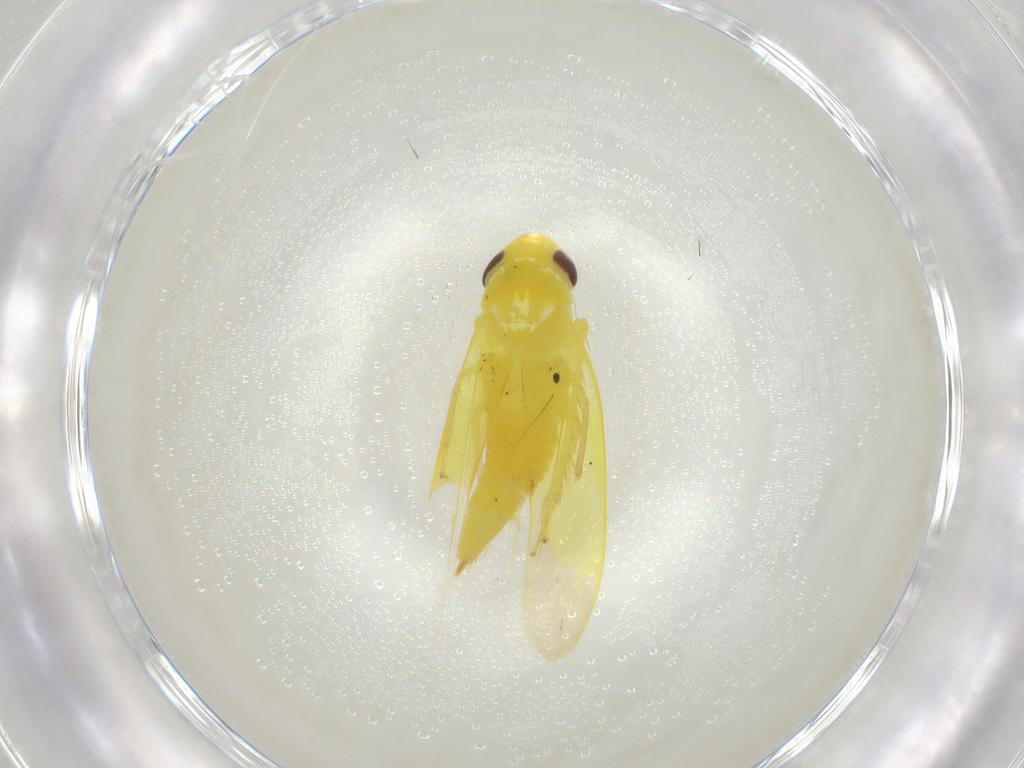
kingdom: Animalia
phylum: Arthropoda
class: Insecta
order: Hemiptera
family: Cicadellidae
